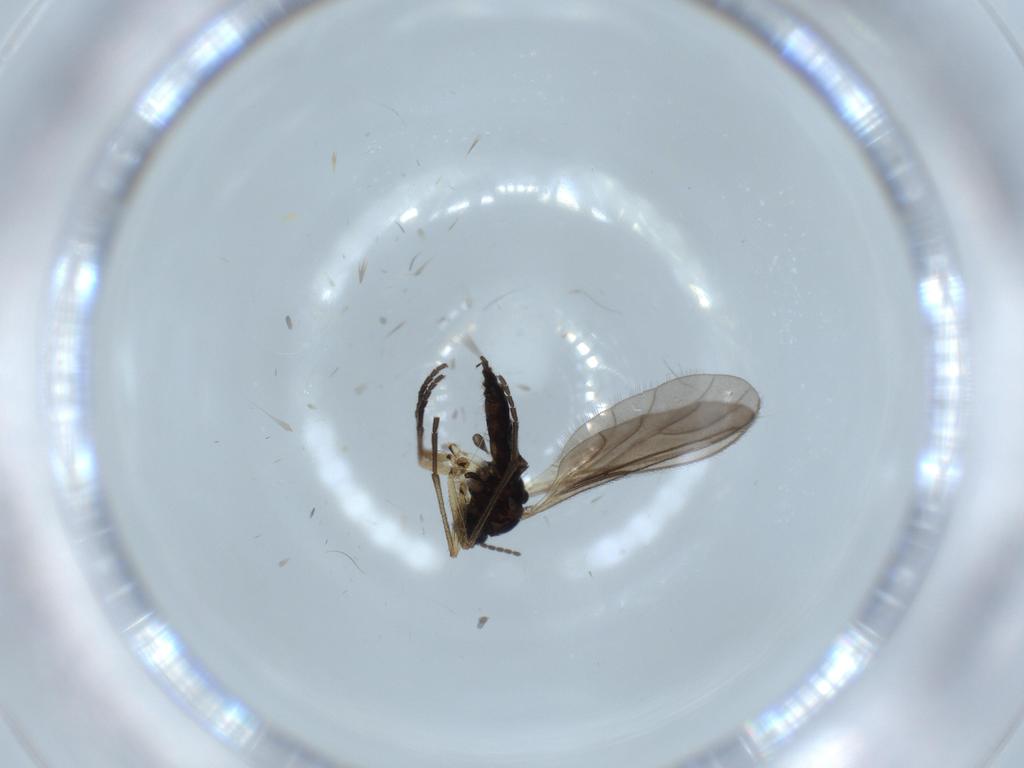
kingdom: Animalia
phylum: Arthropoda
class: Insecta
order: Diptera
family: Sciaridae
